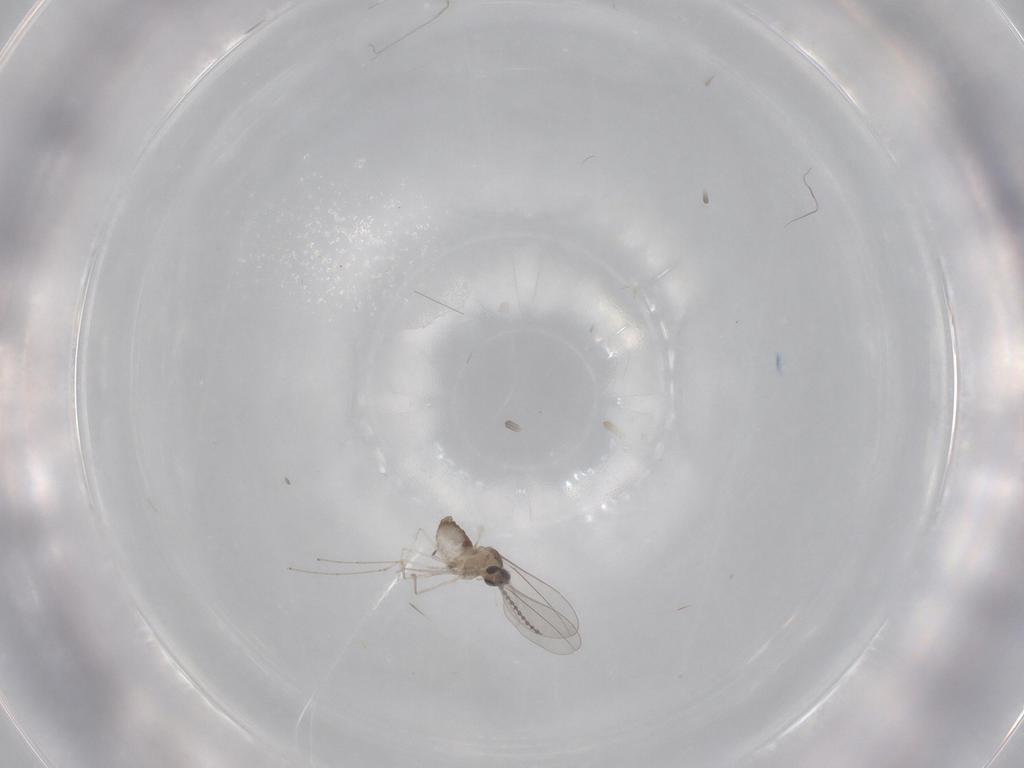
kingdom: Animalia
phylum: Arthropoda
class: Insecta
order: Diptera
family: Cecidomyiidae
